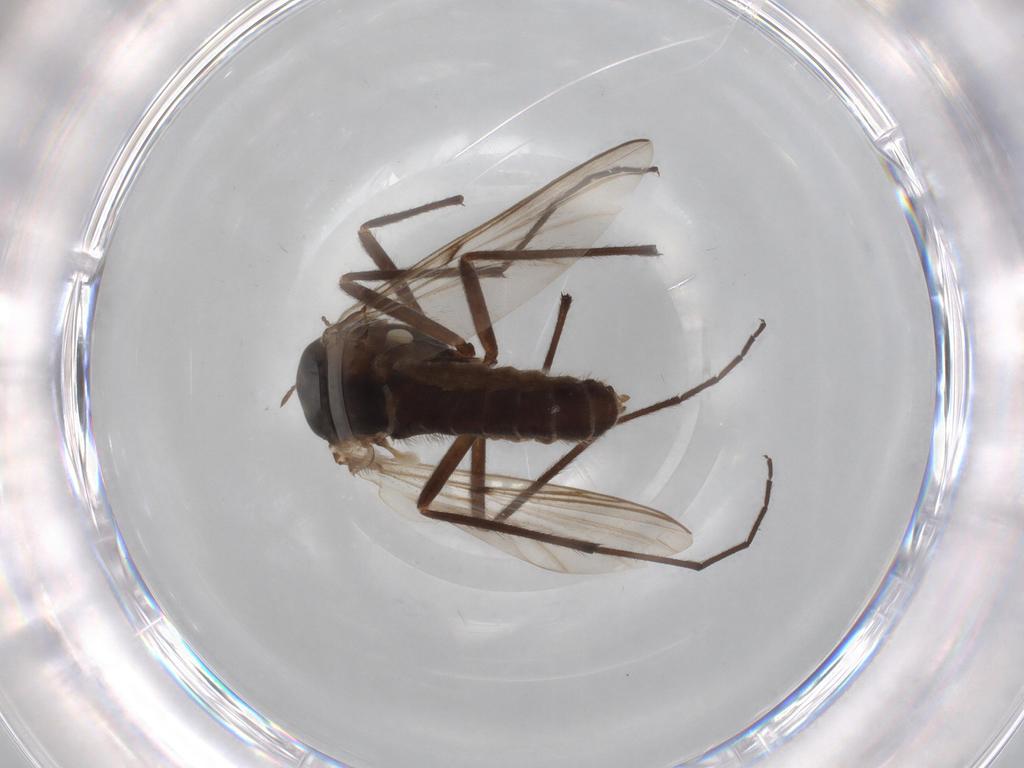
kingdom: Animalia
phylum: Arthropoda
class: Insecta
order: Diptera
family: Chironomidae
